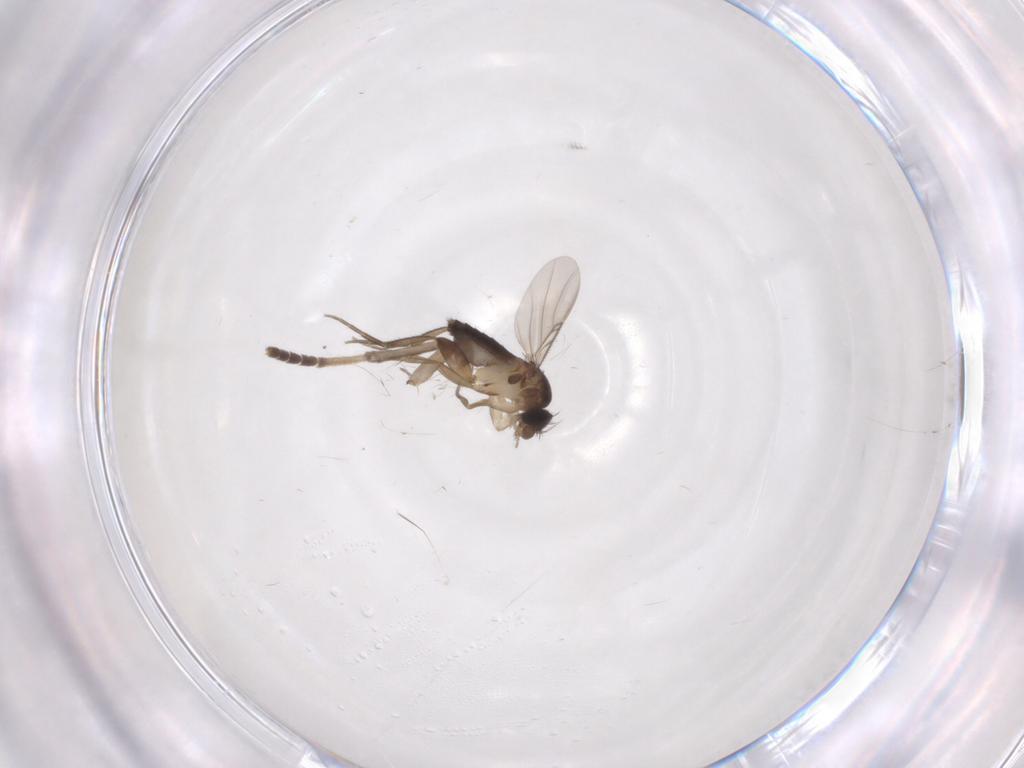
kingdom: Animalia
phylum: Arthropoda
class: Insecta
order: Diptera
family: Phoridae
